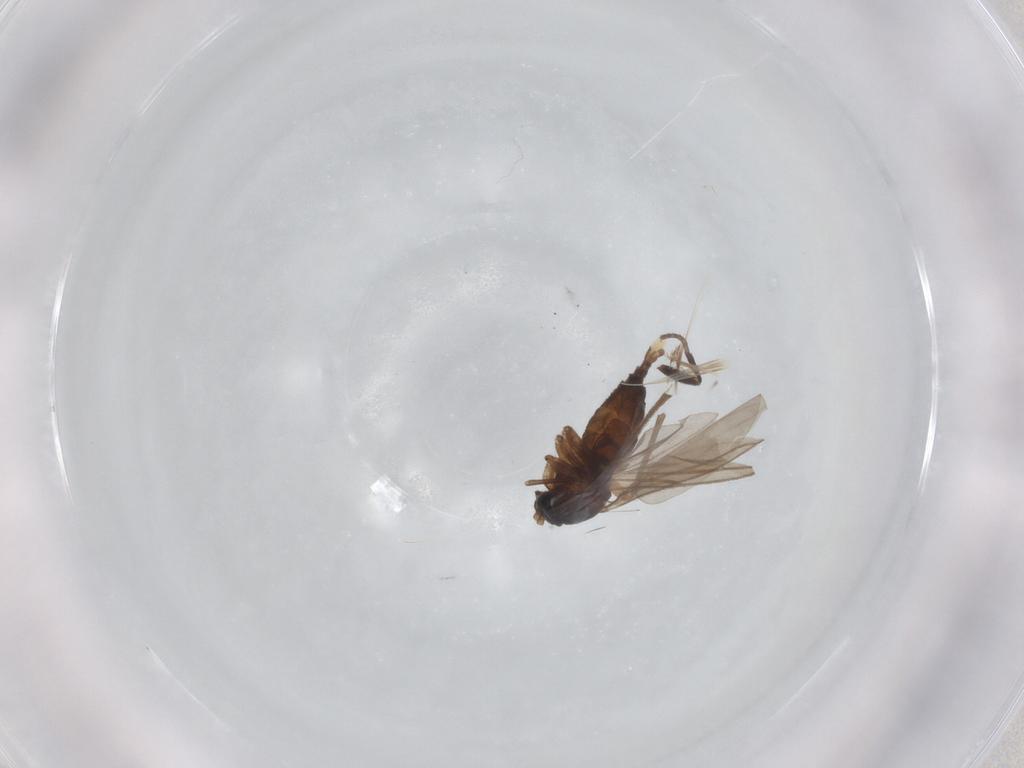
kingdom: Animalia
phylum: Arthropoda
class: Insecta
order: Diptera
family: Sciaridae
